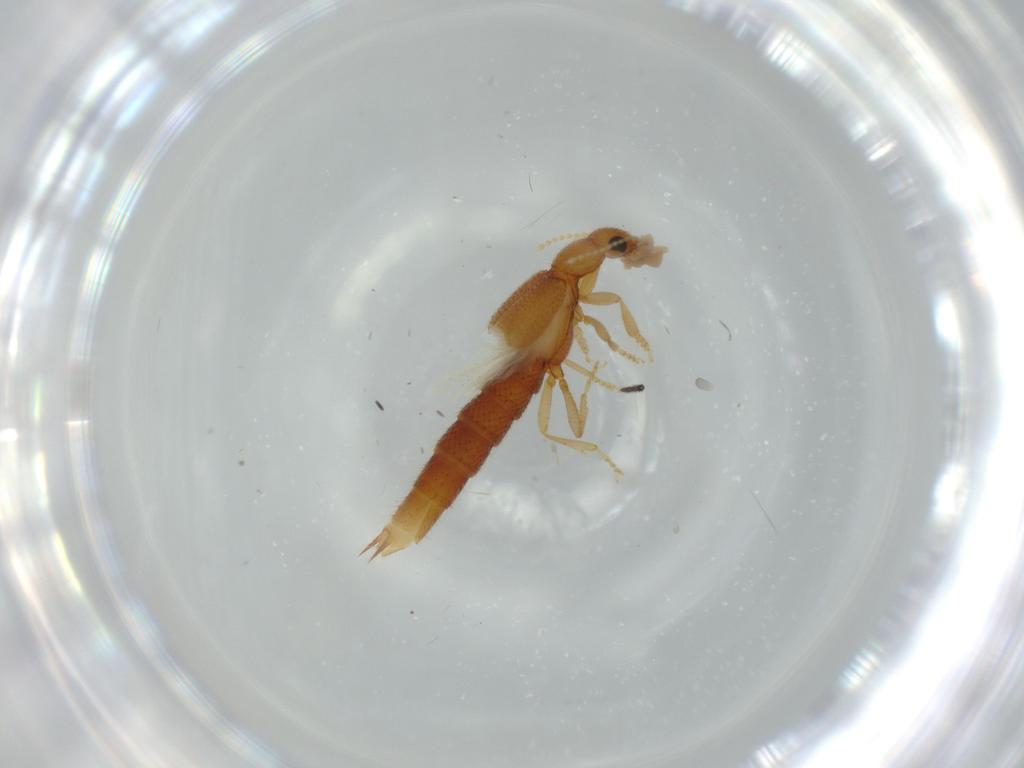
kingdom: Animalia
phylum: Arthropoda
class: Insecta
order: Coleoptera
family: Staphylinidae
